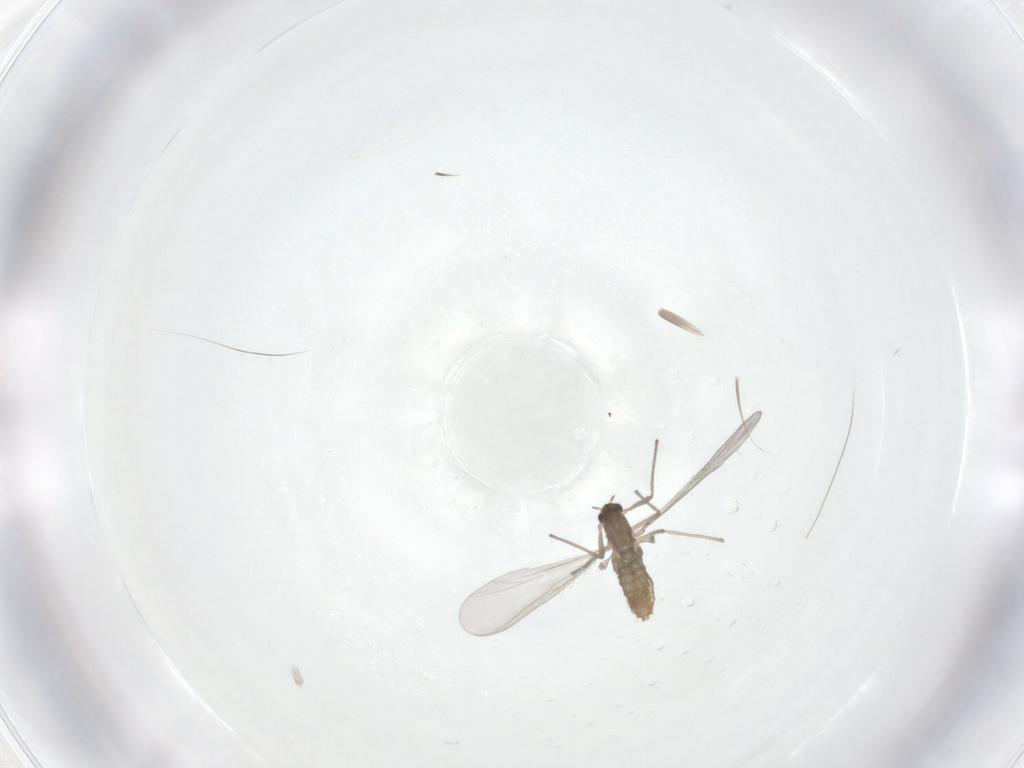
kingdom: Animalia
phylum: Arthropoda
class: Insecta
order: Diptera
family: Chironomidae
